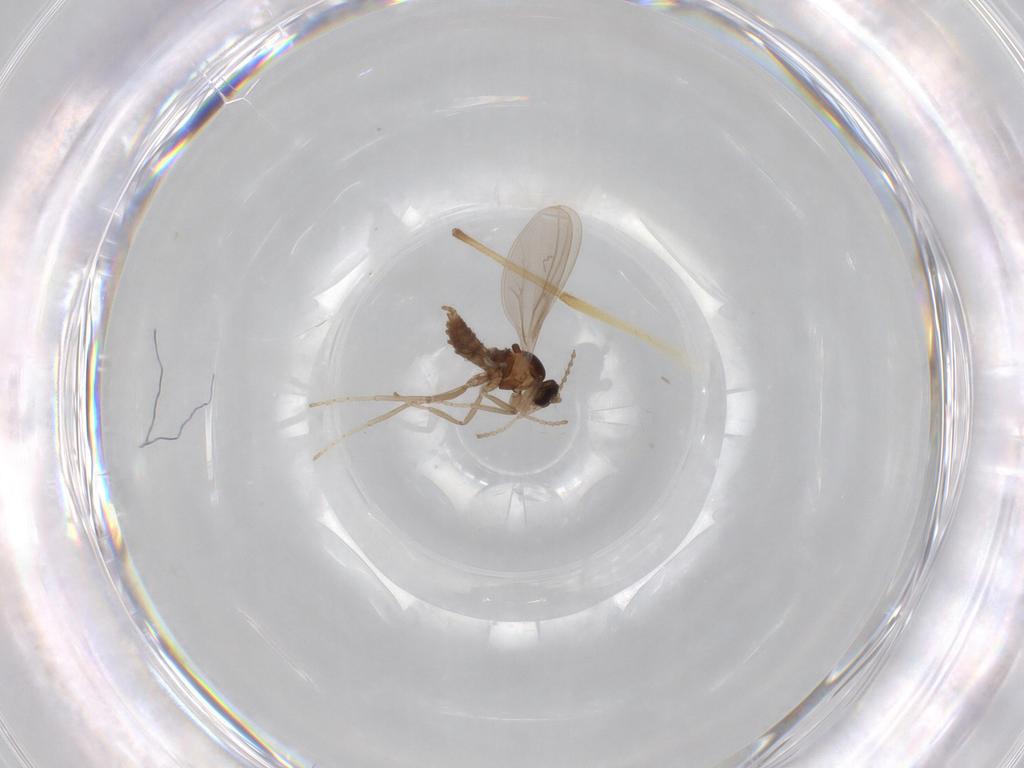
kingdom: Animalia
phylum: Arthropoda
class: Insecta
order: Diptera
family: Cecidomyiidae
